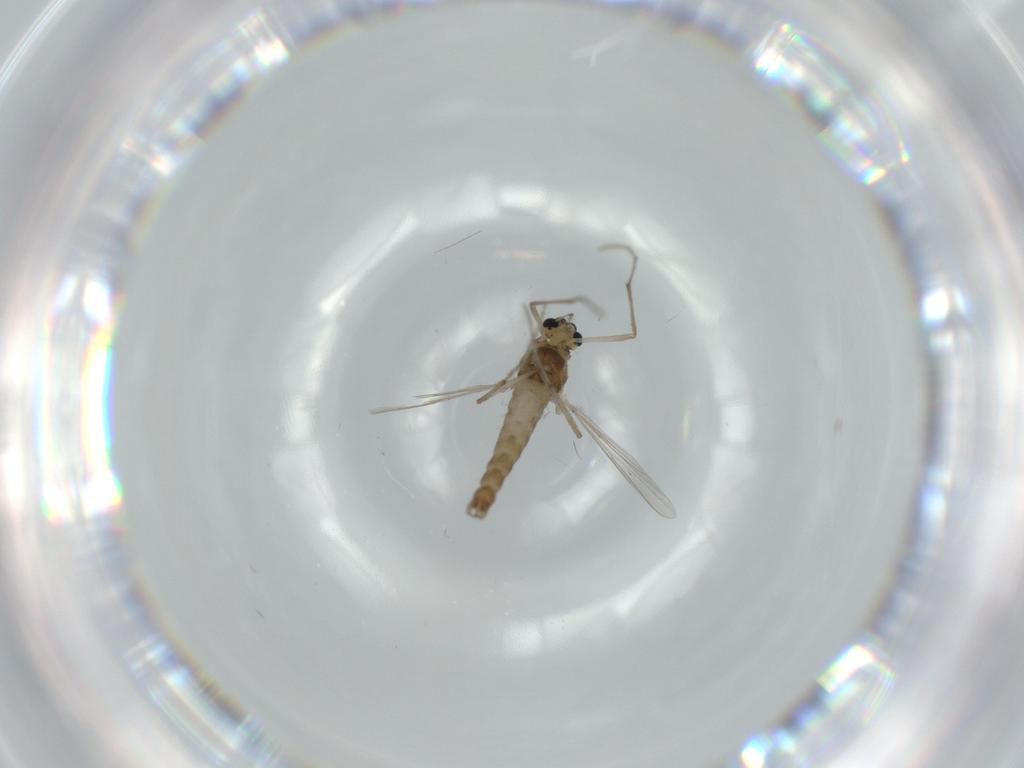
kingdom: Animalia
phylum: Arthropoda
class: Insecta
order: Diptera
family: Chironomidae
